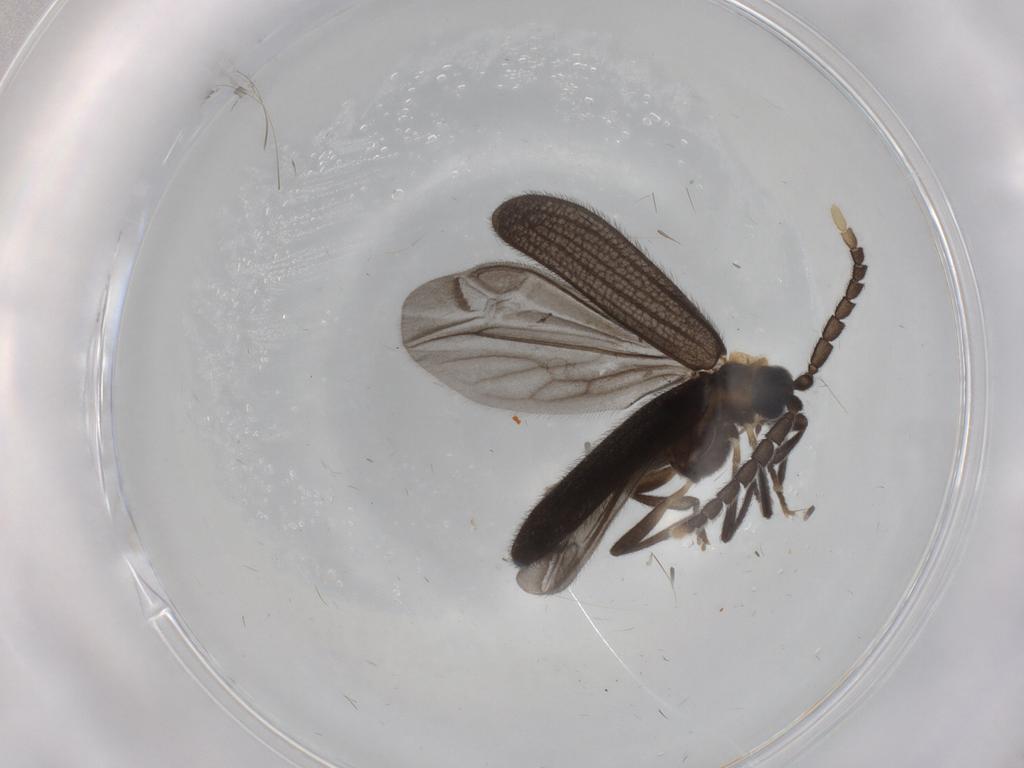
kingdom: Animalia
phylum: Arthropoda
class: Insecta
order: Coleoptera
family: Lycidae
